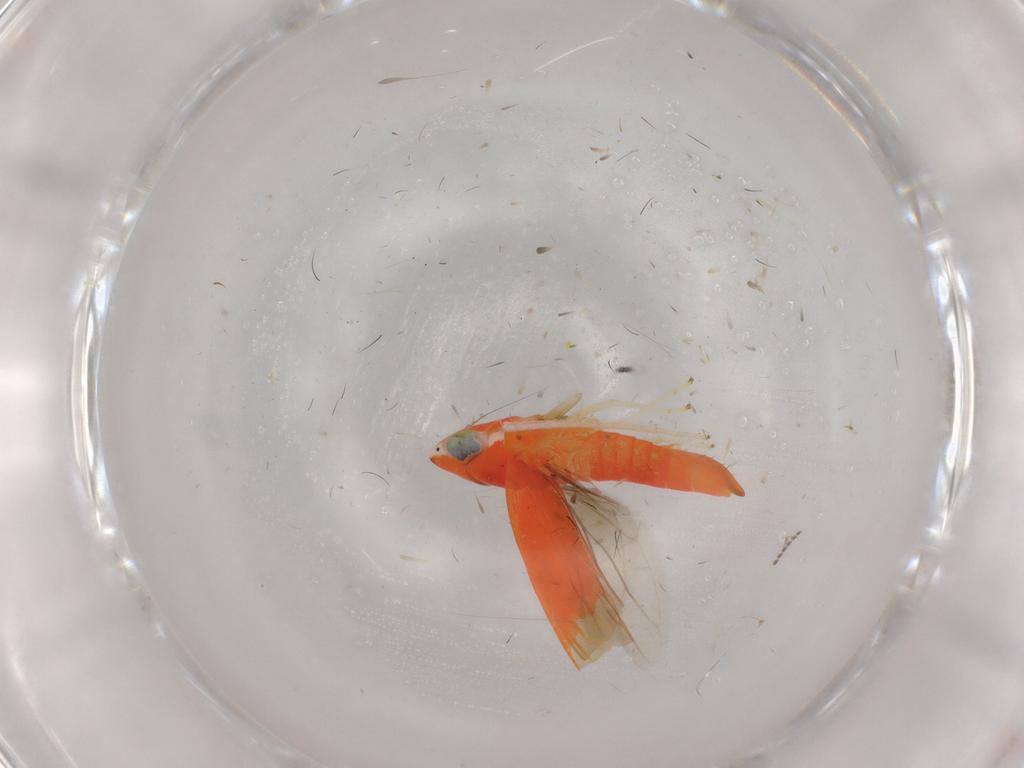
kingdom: Animalia
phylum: Arthropoda
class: Insecta
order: Hemiptera
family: Cicadellidae
